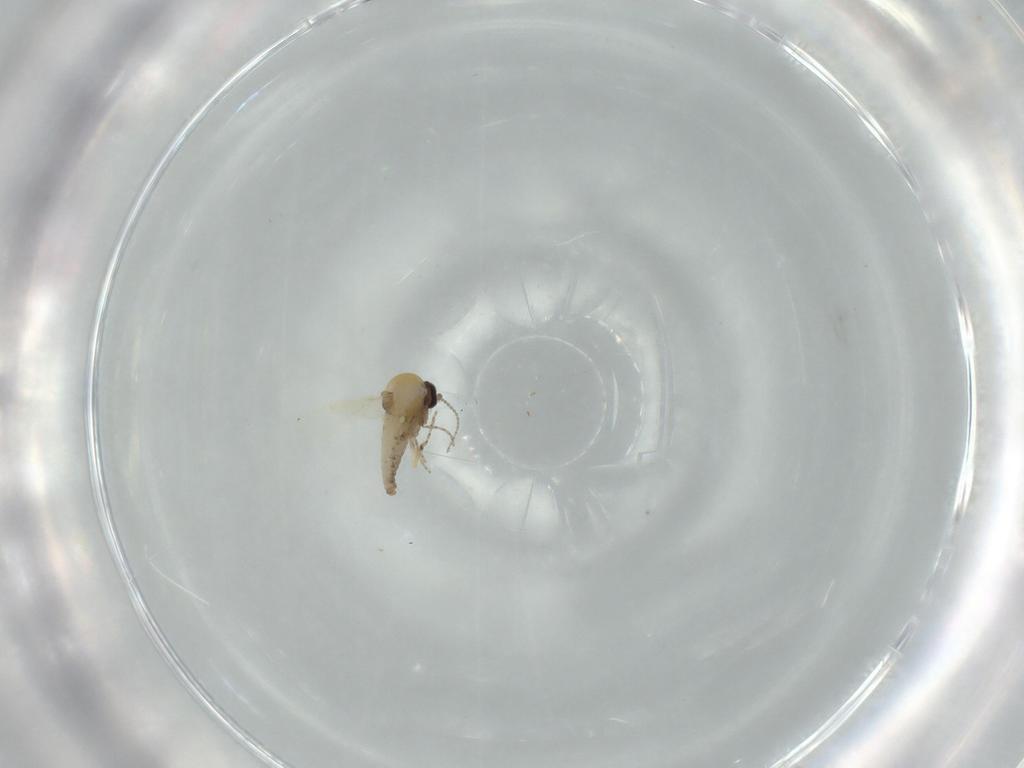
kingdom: Animalia
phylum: Arthropoda
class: Insecta
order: Diptera
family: Ceratopogonidae
